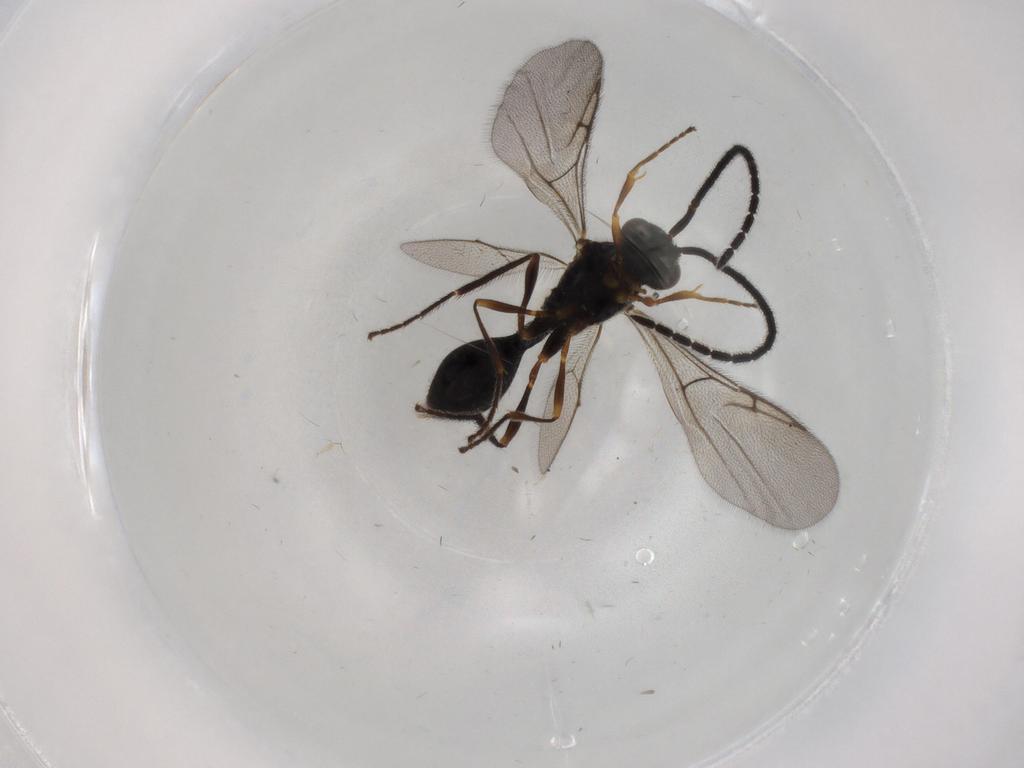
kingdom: Animalia
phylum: Arthropoda
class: Insecta
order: Hymenoptera
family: Diapriidae
